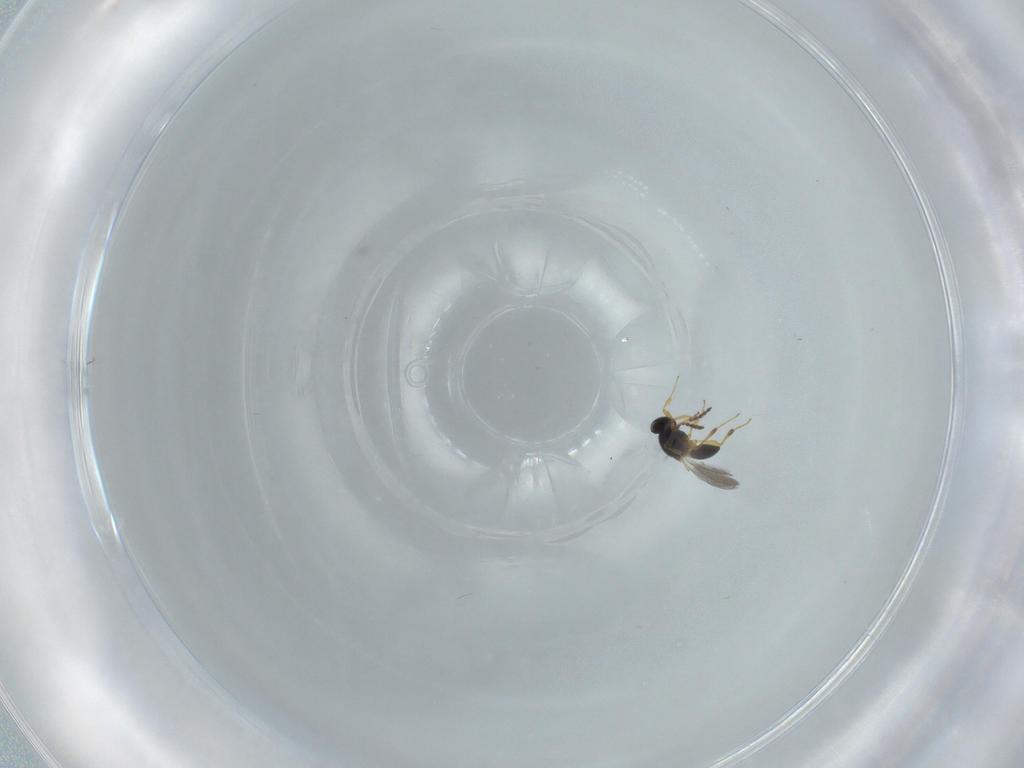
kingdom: Animalia
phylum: Arthropoda
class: Insecta
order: Hymenoptera
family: Platygastridae
